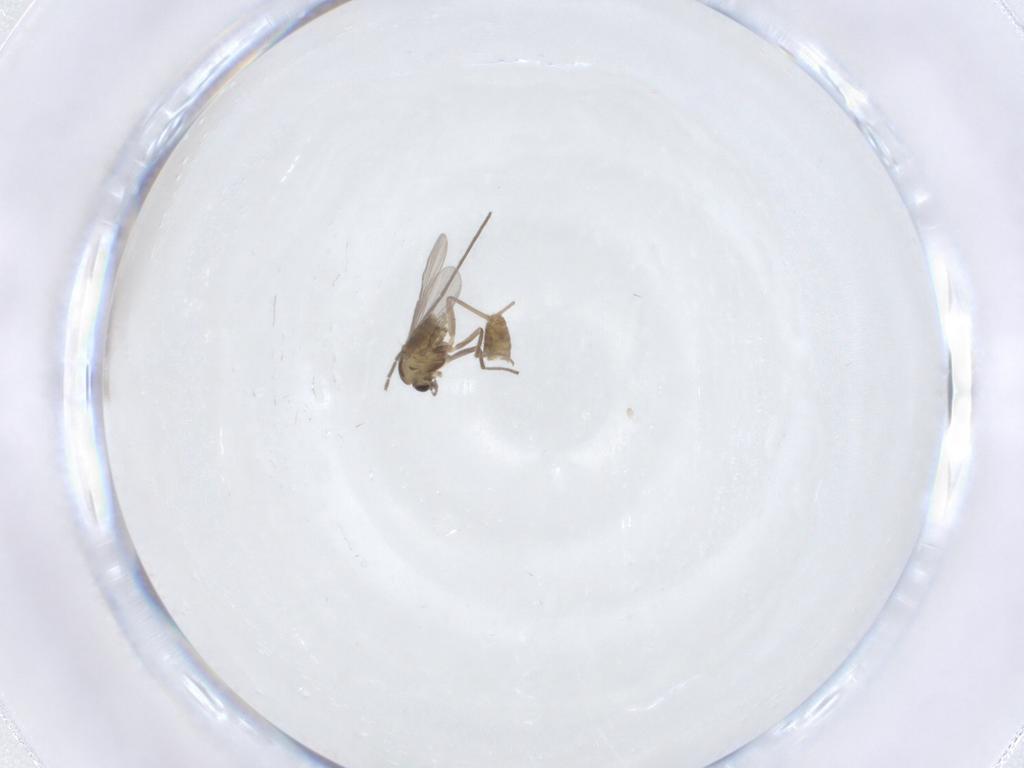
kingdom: Animalia
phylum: Arthropoda
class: Insecta
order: Diptera
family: Chironomidae
